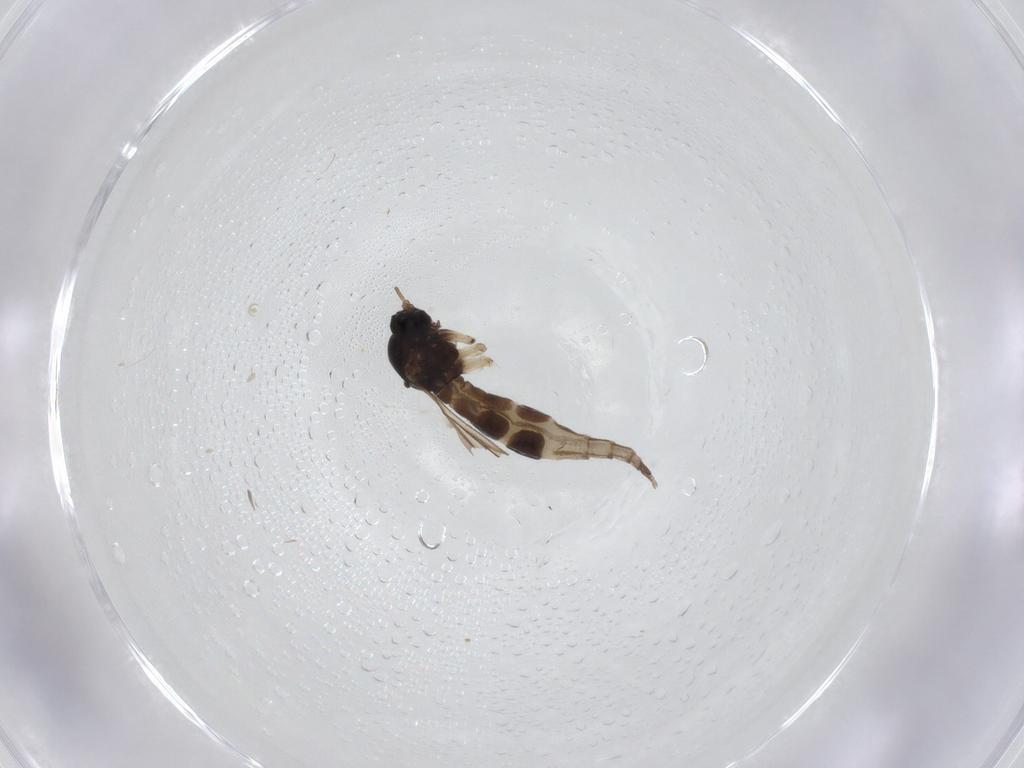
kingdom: Animalia
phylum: Arthropoda
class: Insecta
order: Diptera
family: Sciaridae
